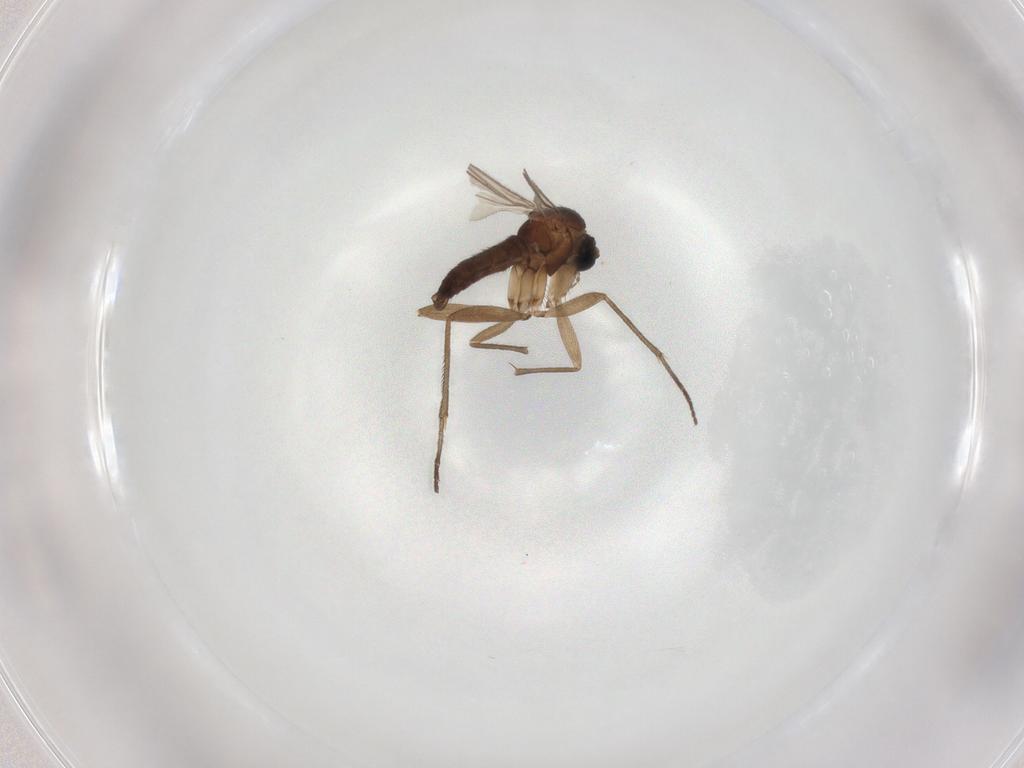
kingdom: Animalia
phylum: Arthropoda
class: Insecta
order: Diptera
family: Sciaridae
